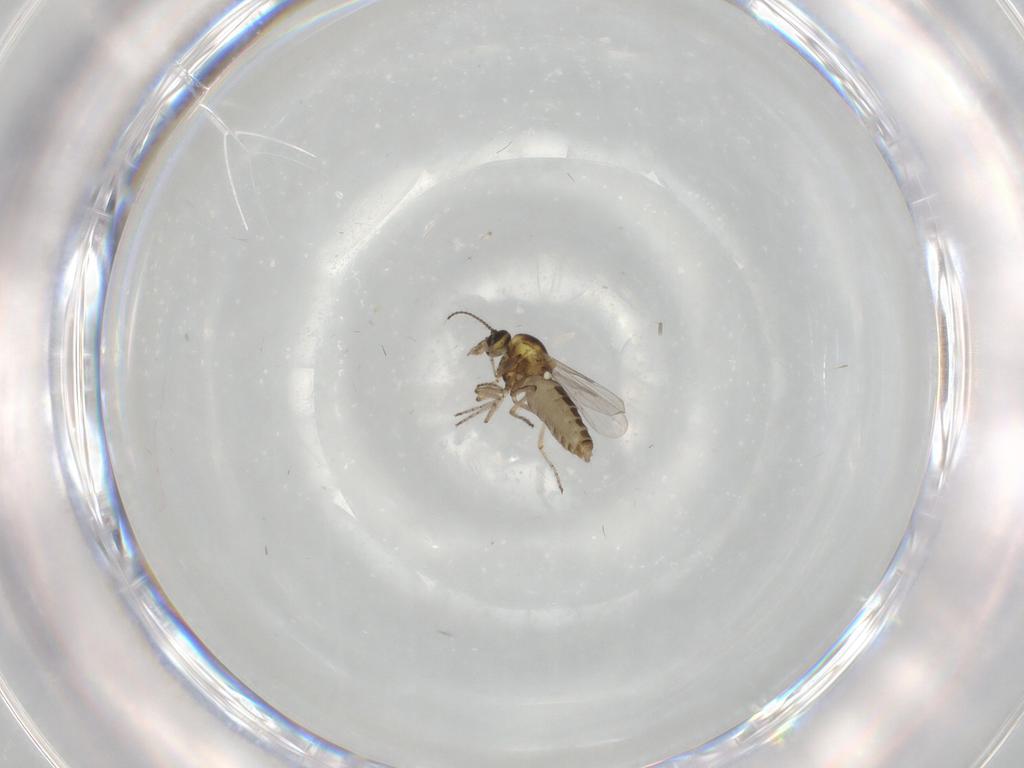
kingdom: Animalia
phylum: Arthropoda
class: Insecta
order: Diptera
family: Ceratopogonidae
